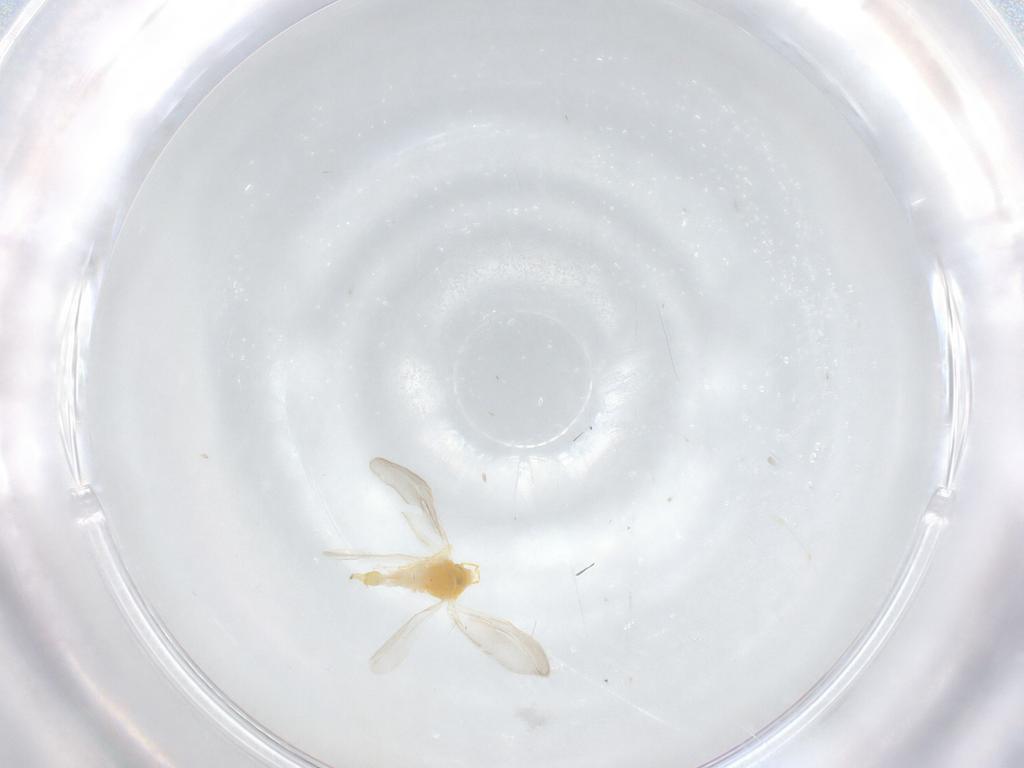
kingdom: Animalia
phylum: Arthropoda
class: Insecta
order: Hemiptera
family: Aleyrodidae
